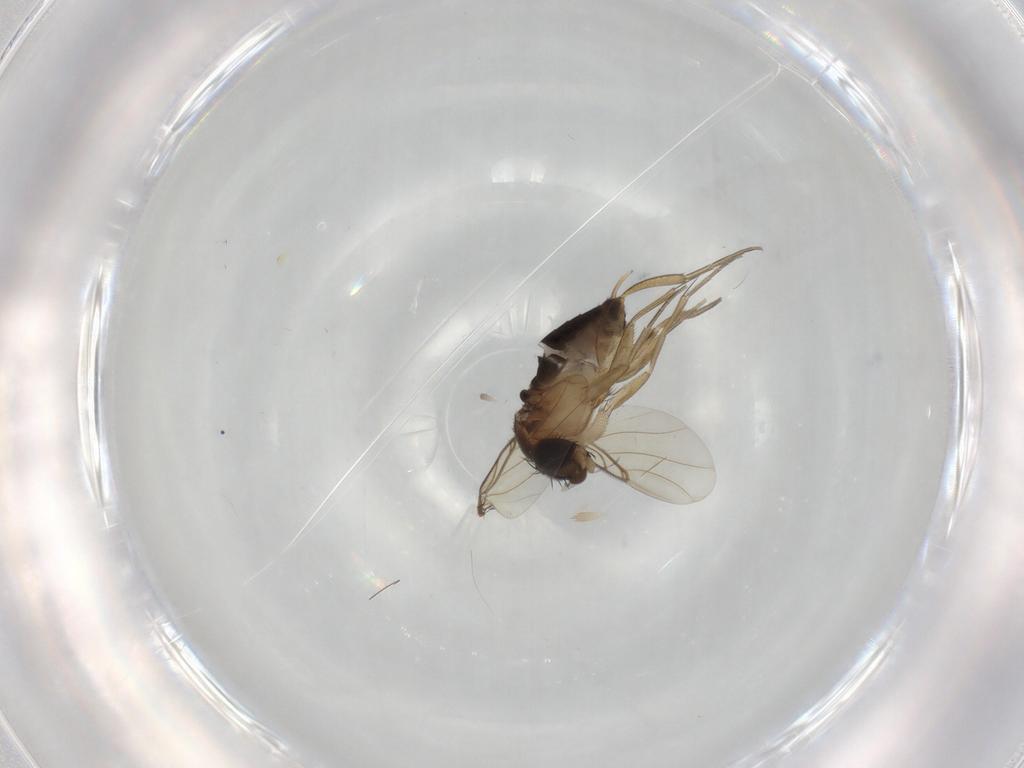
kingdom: Animalia
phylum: Arthropoda
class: Insecta
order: Diptera
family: Phoridae
